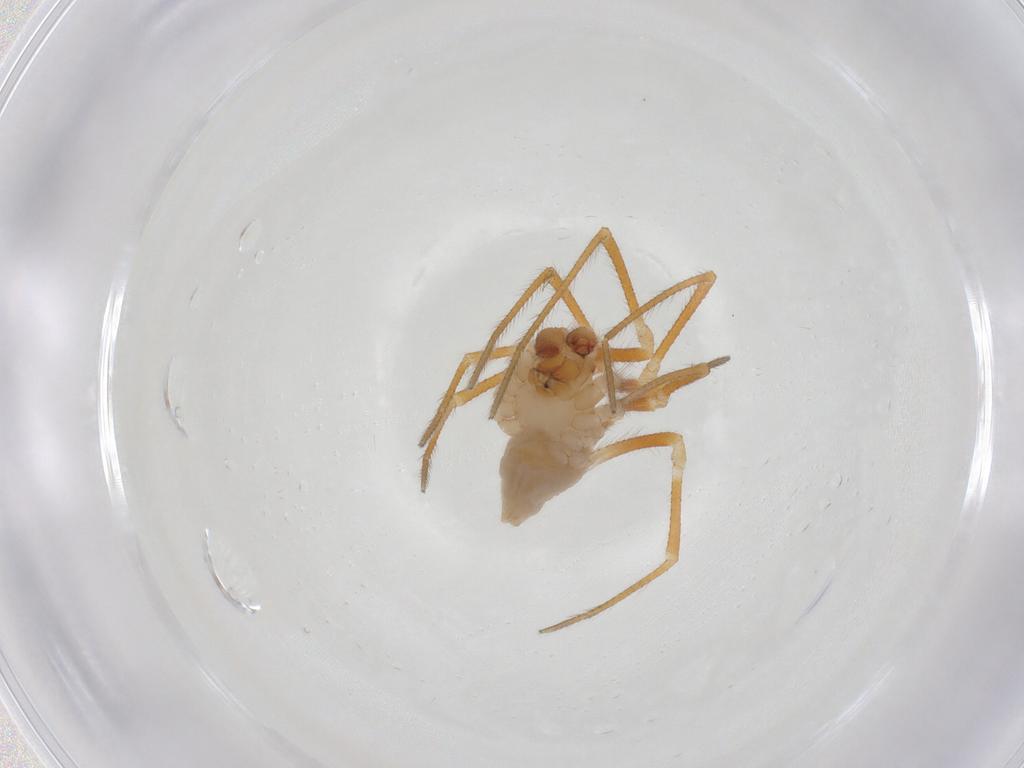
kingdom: Animalia
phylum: Arthropoda
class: Arachnida
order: Araneae
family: Theridiidae
